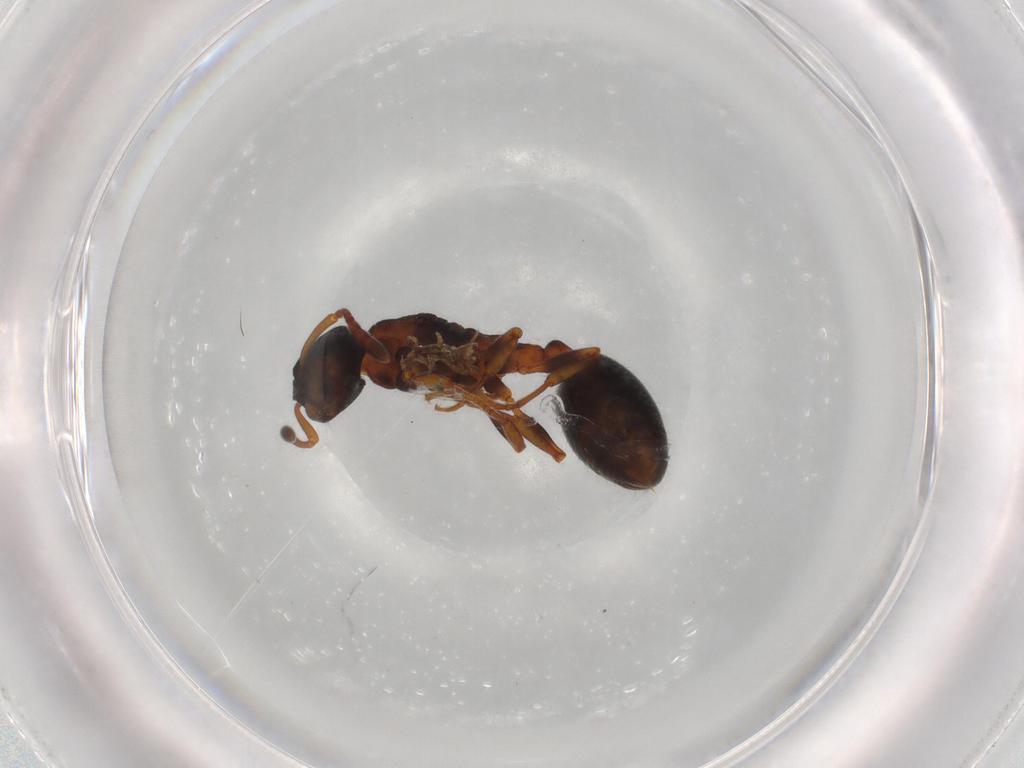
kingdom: Animalia
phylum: Arthropoda
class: Insecta
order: Hymenoptera
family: Formicidae
